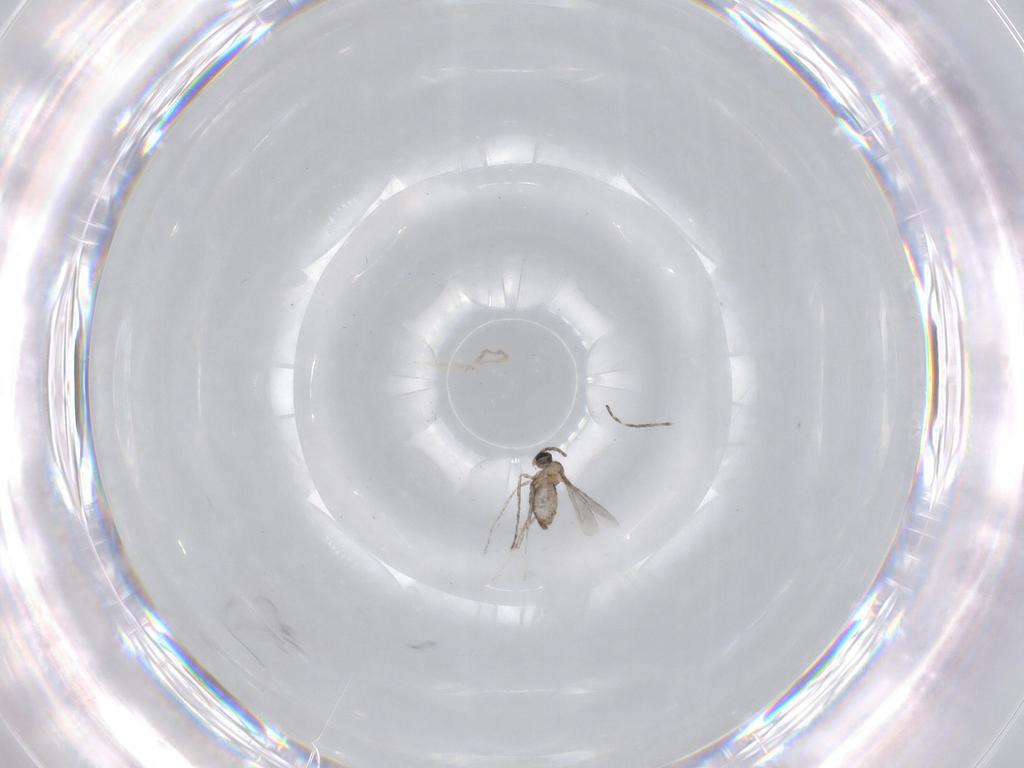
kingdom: Animalia
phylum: Arthropoda
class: Insecta
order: Diptera
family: Cecidomyiidae
